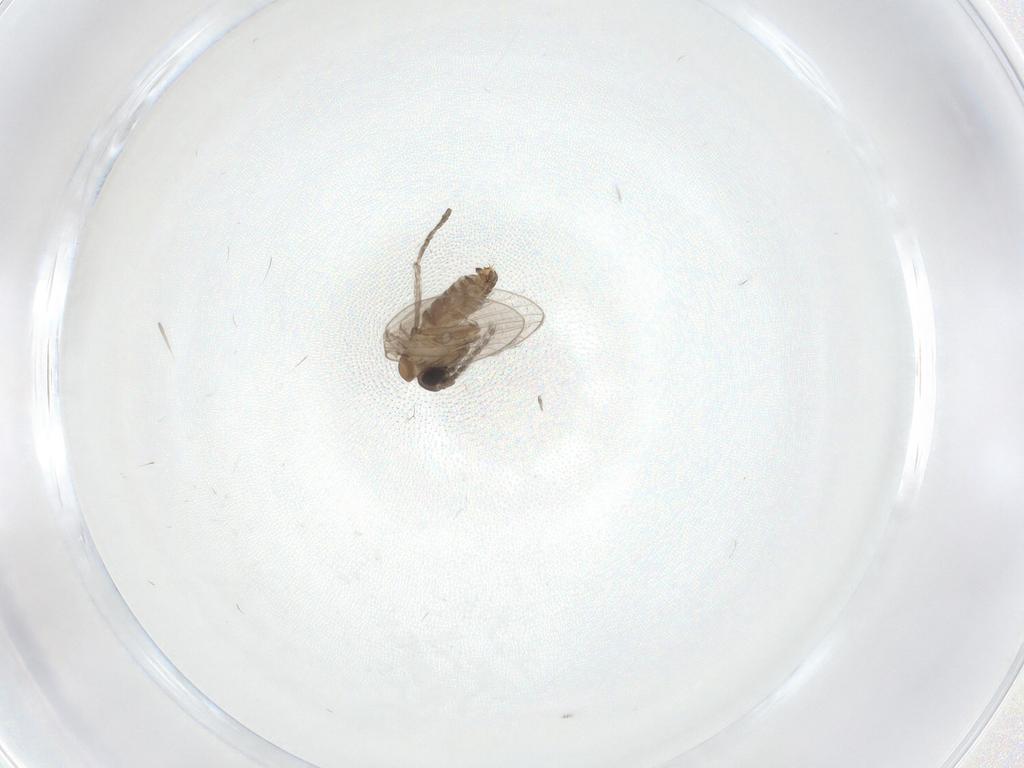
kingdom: Animalia
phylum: Arthropoda
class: Insecta
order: Diptera
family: Psychodidae
